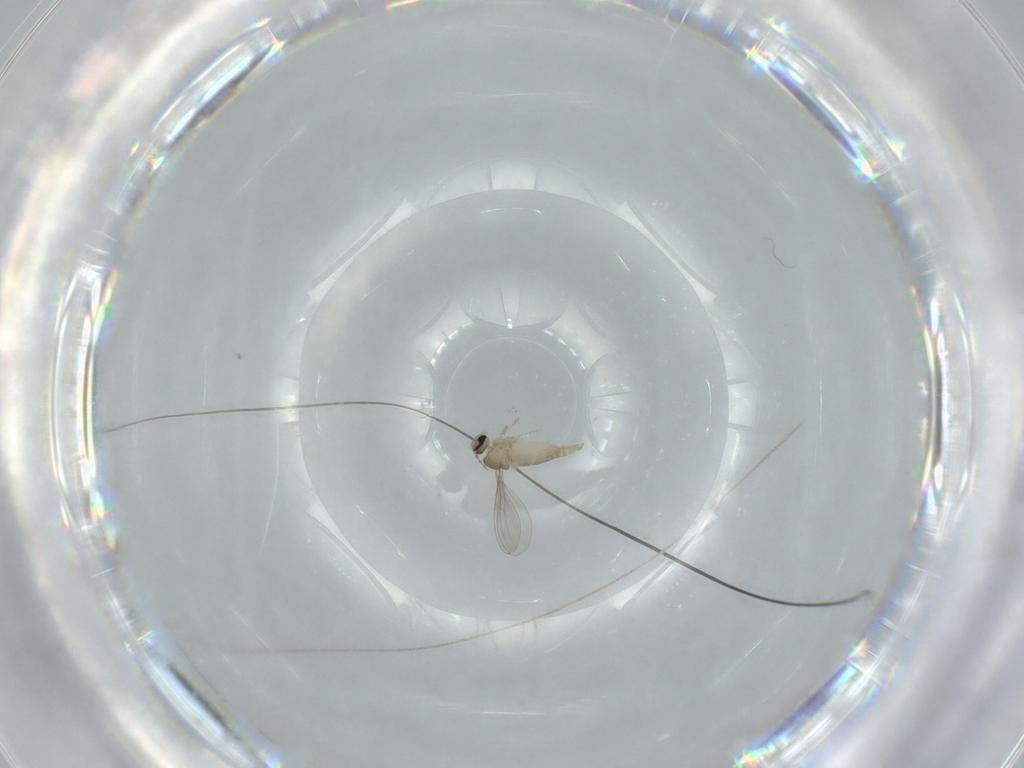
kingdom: Animalia
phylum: Arthropoda
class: Insecta
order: Diptera
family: Cecidomyiidae
